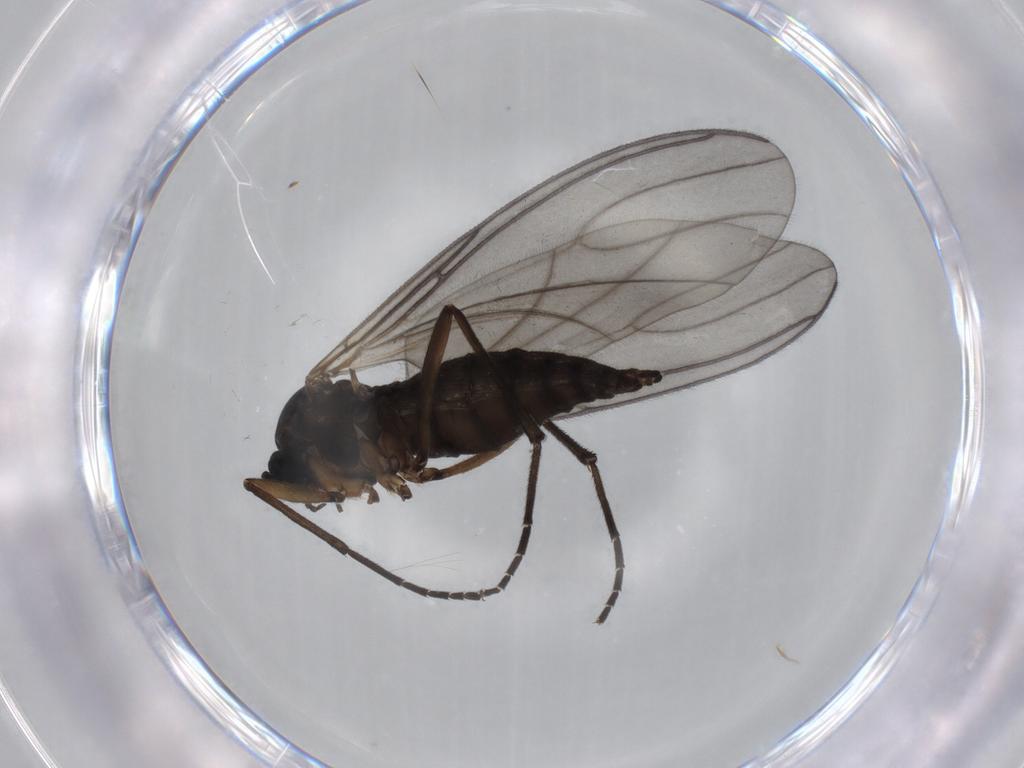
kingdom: Animalia
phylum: Arthropoda
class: Insecta
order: Diptera
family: Sciaridae
